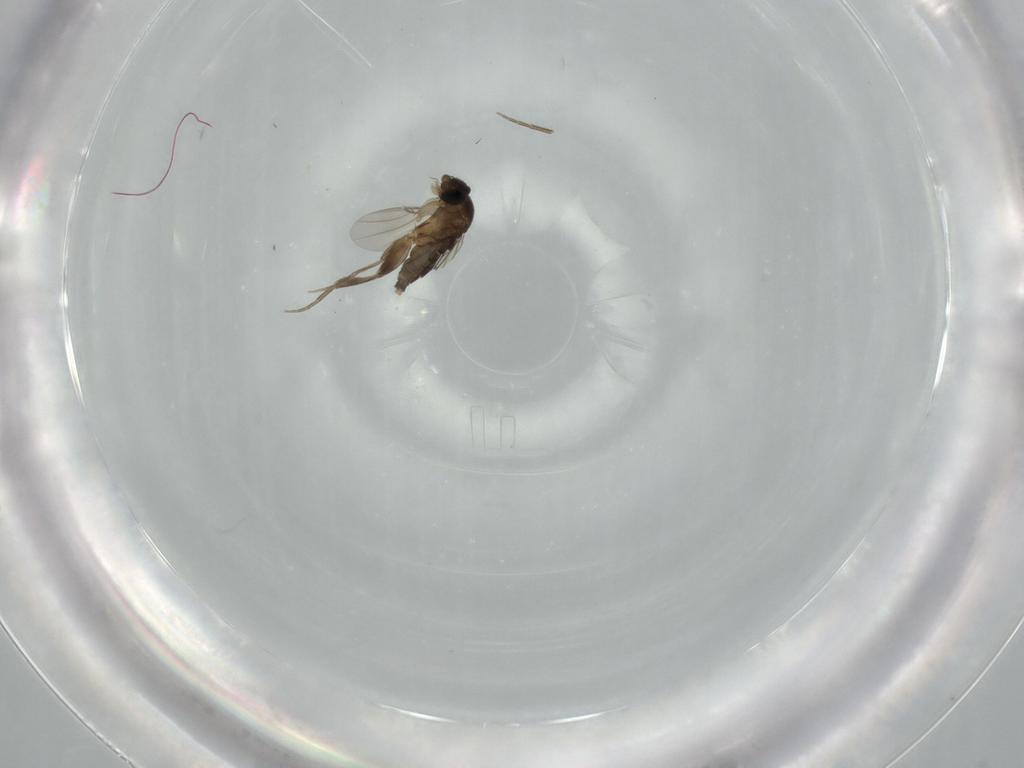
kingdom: Animalia
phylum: Arthropoda
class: Insecta
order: Diptera
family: Phoridae
